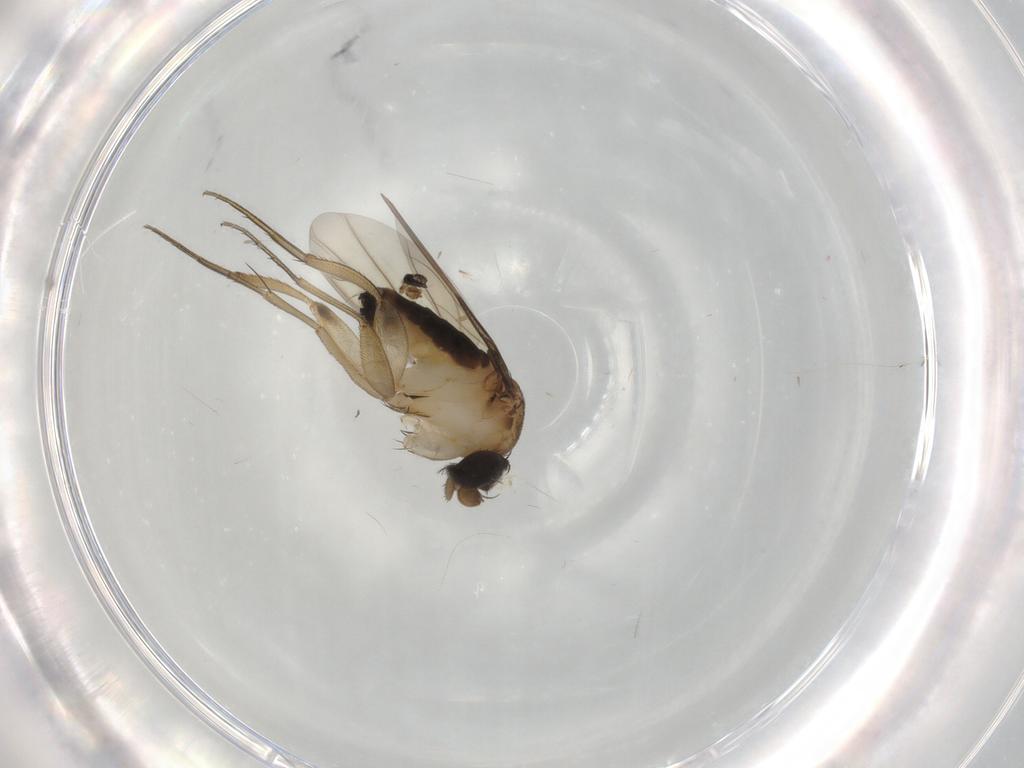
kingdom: Animalia
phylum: Arthropoda
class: Insecta
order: Diptera
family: Phoridae
